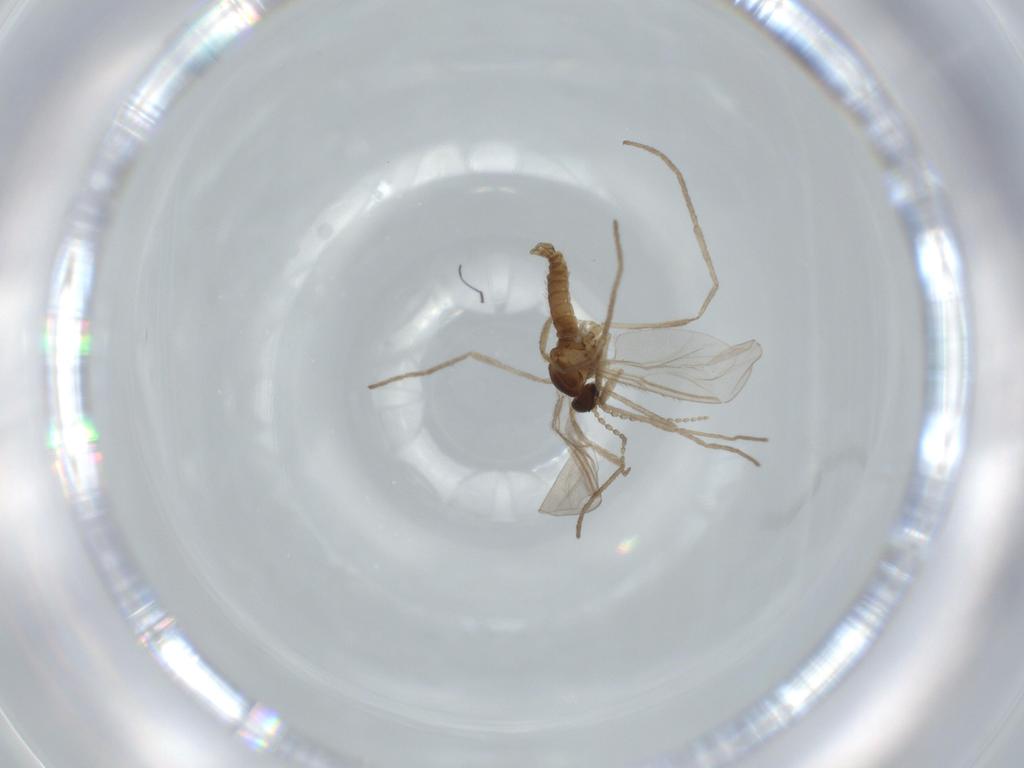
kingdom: Animalia
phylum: Arthropoda
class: Insecta
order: Diptera
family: Cecidomyiidae
